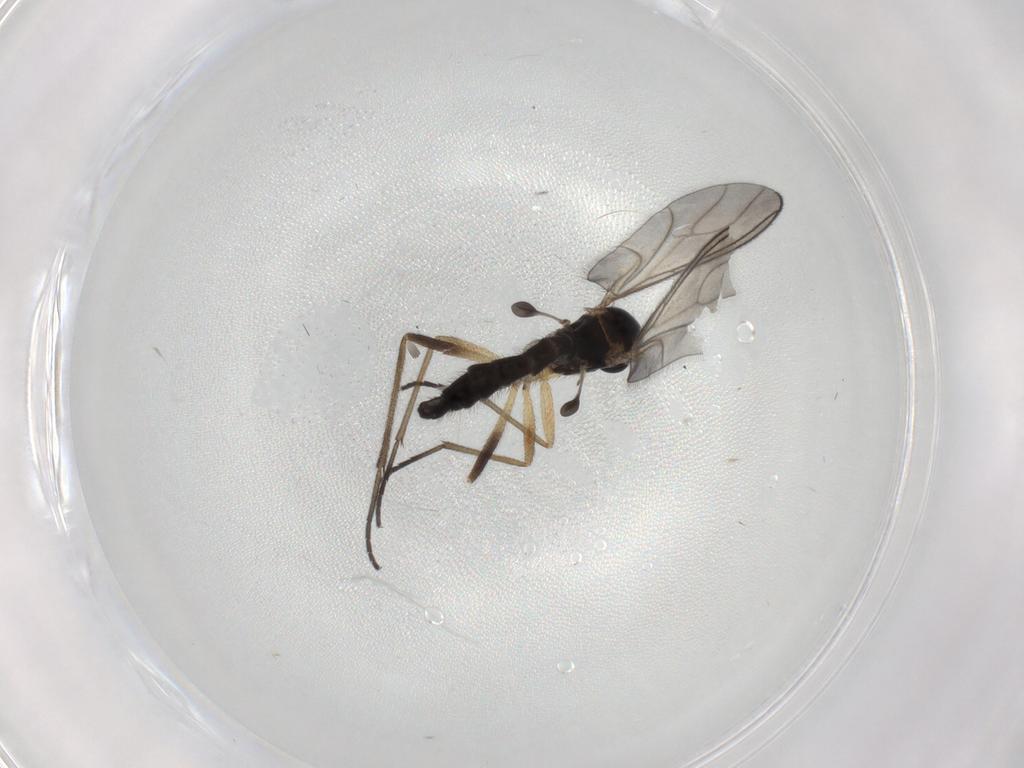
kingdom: Animalia
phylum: Arthropoda
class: Insecta
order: Diptera
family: Sciaridae
